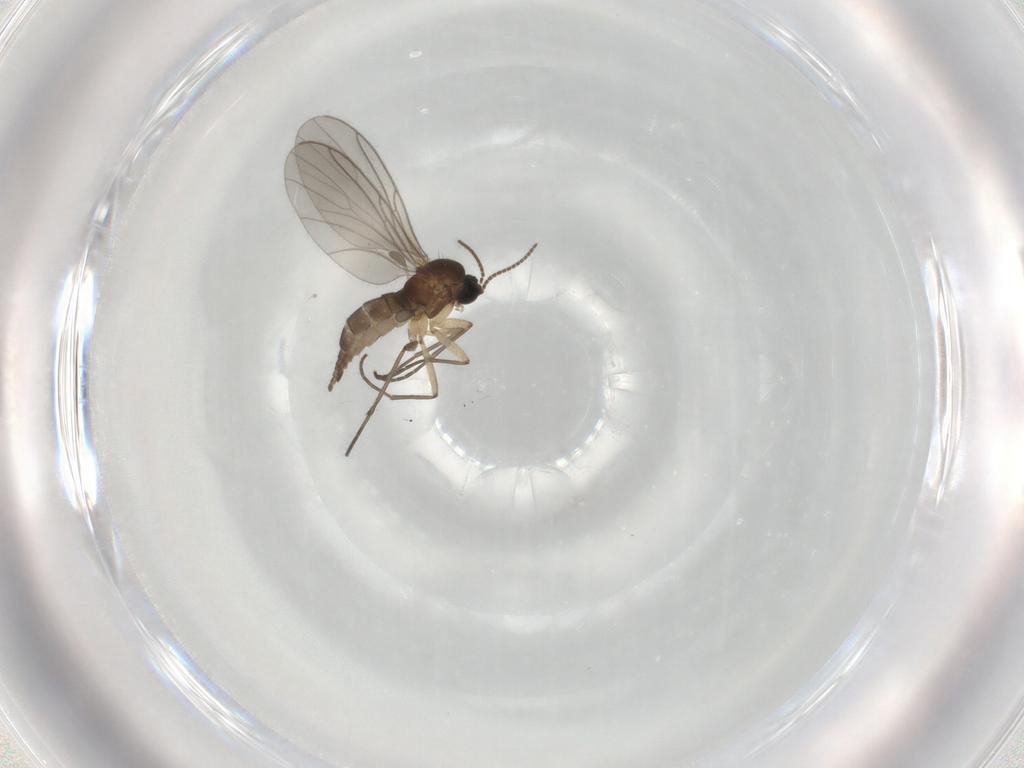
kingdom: Animalia
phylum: Arthropoda
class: Insecta
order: Diptera
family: Sciaridae
